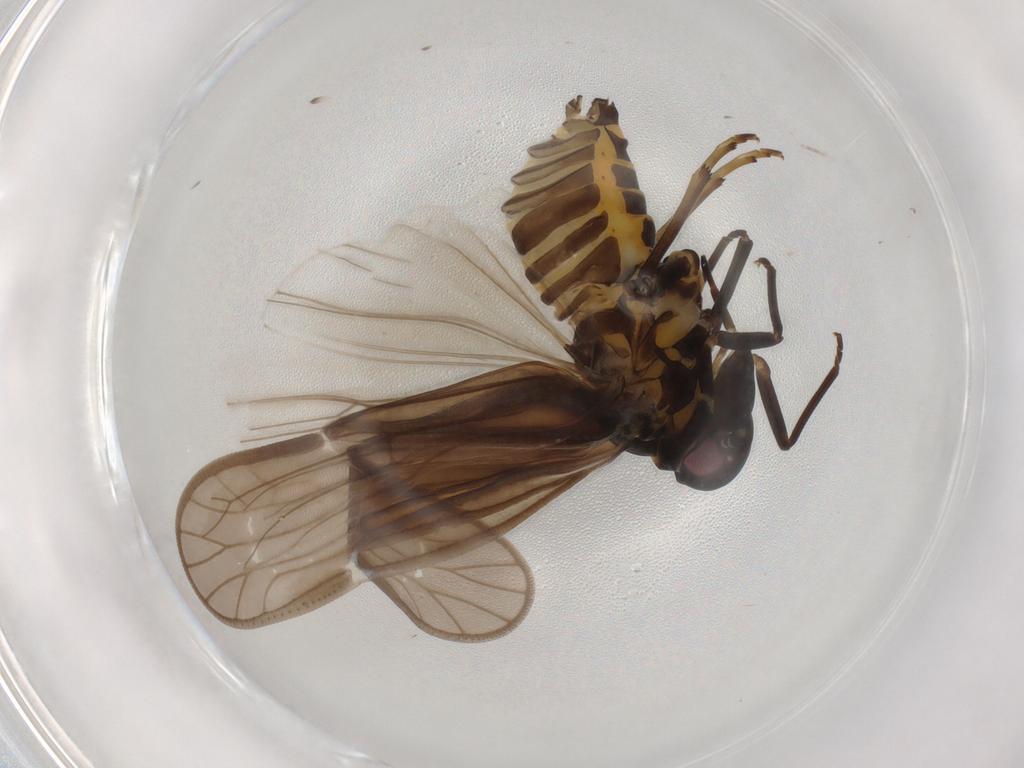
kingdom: Animalia
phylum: Arthropoda
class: Insecta
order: Hemiptera
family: Meenoplidae
